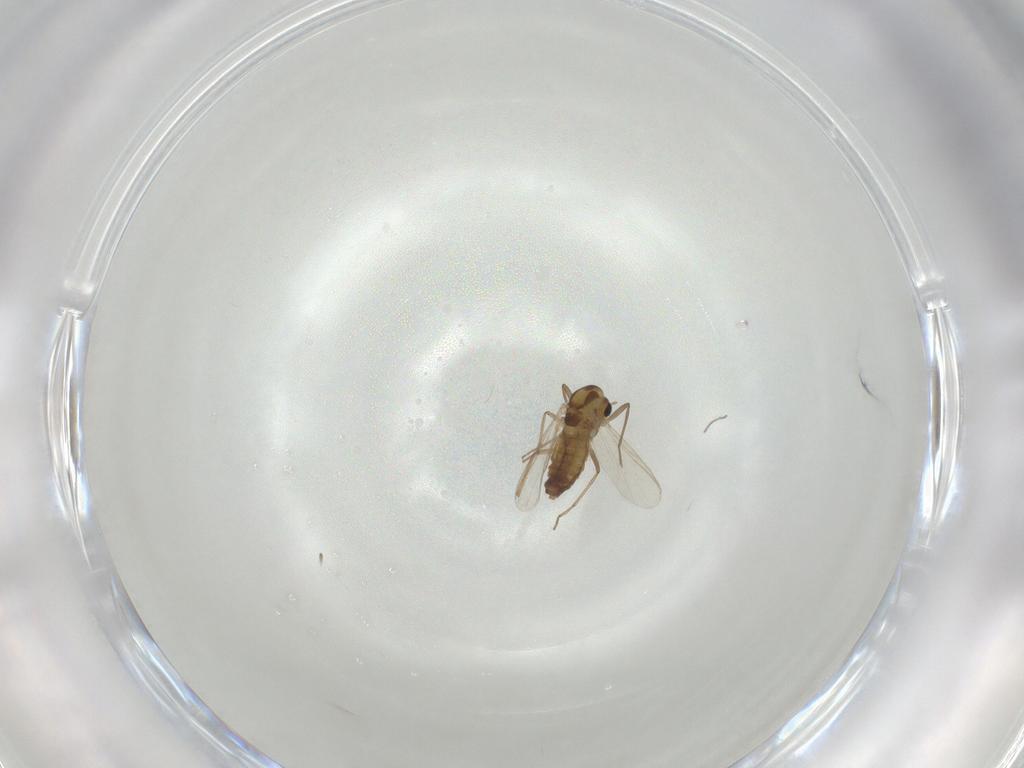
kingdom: Animalia
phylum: Arthropoda
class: Insecta
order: Diptera
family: Chironomidae
